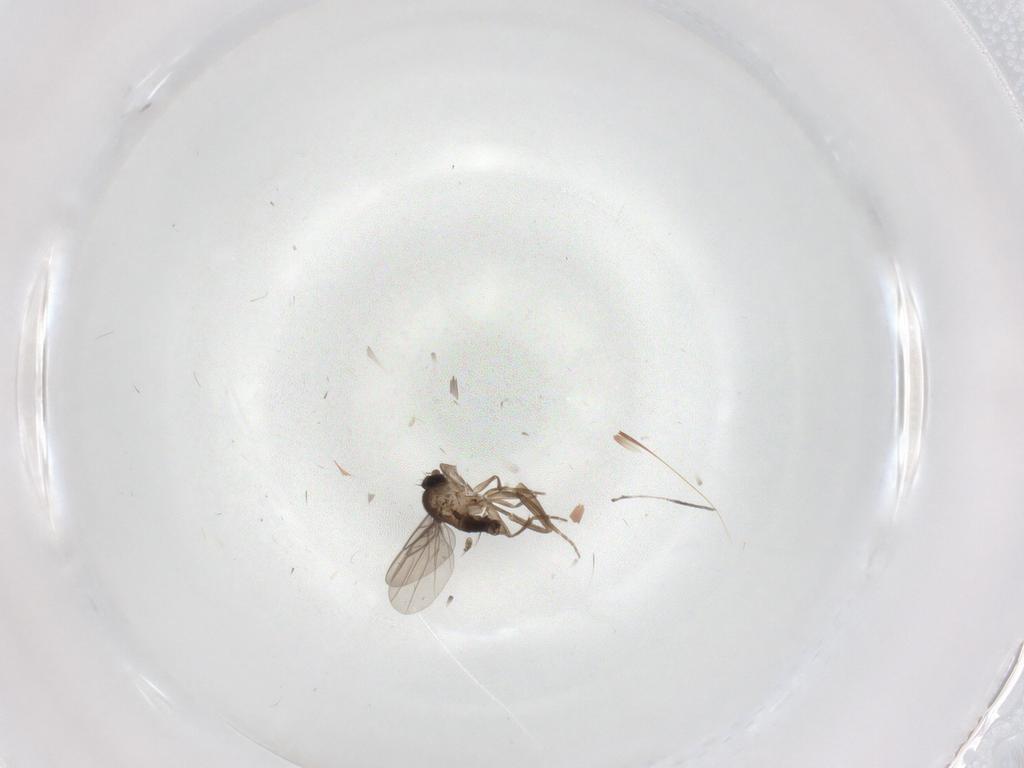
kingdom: Animalia
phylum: Arthropoda
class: Insecta
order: Diptera
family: Phoridae
